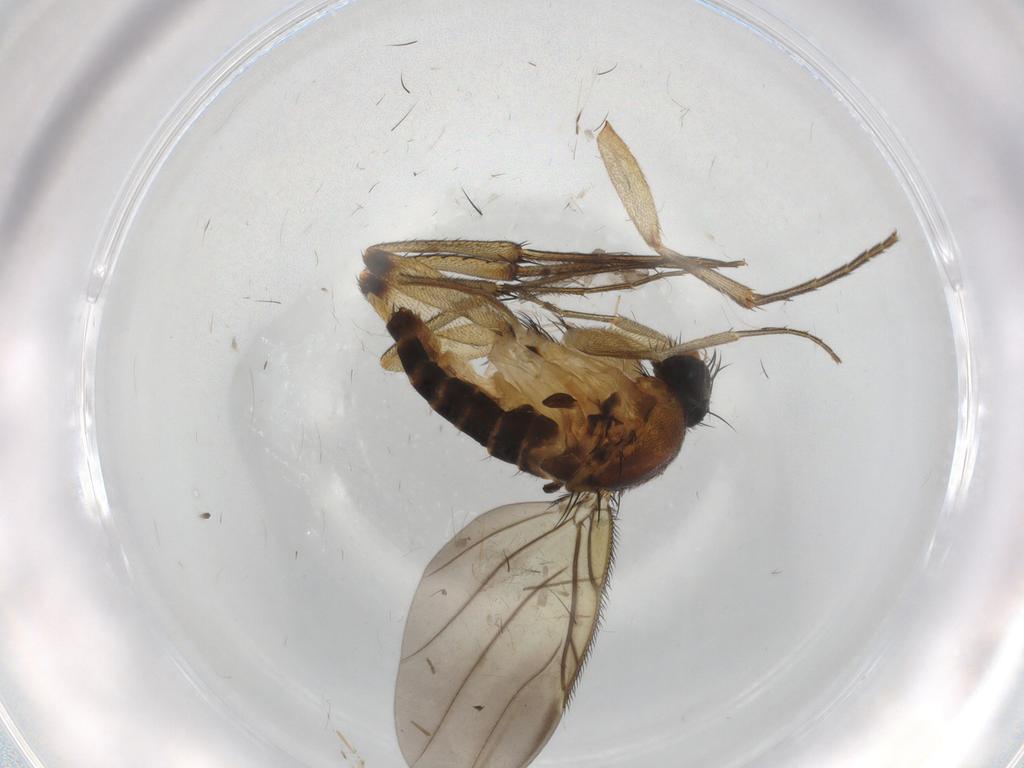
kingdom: Animalia
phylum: Arthropoda
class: Insecta
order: Diptera
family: Phoridae
